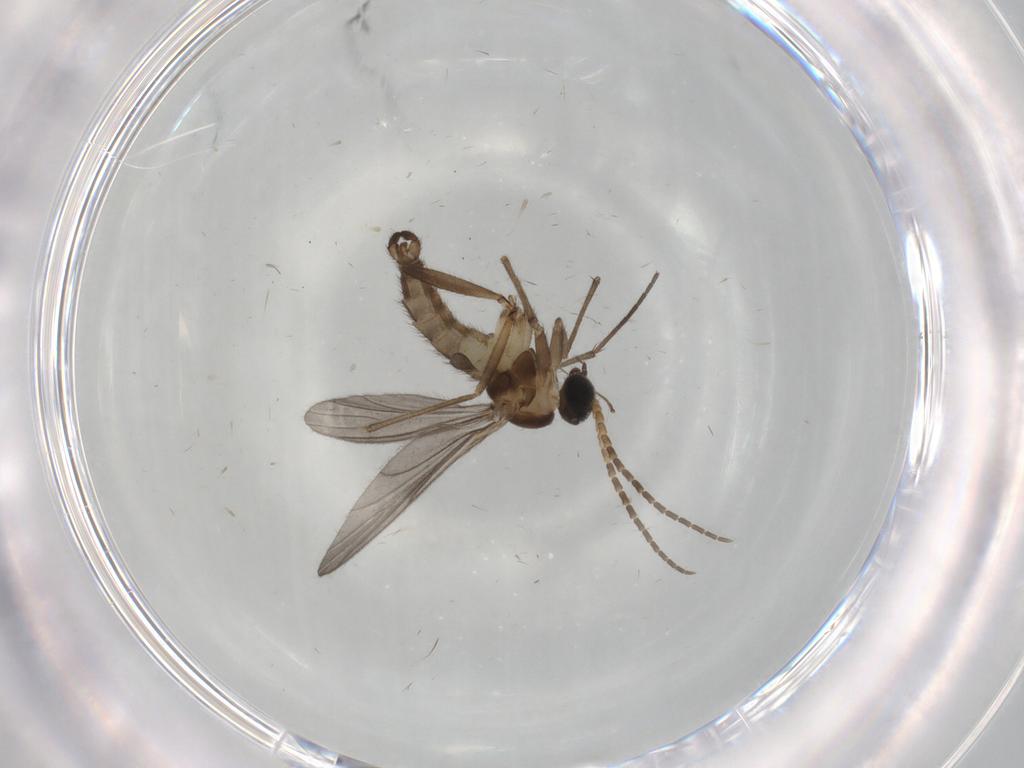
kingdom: Animalia
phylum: Arthropoda
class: Insecta
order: Diptera
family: Sciaridae
